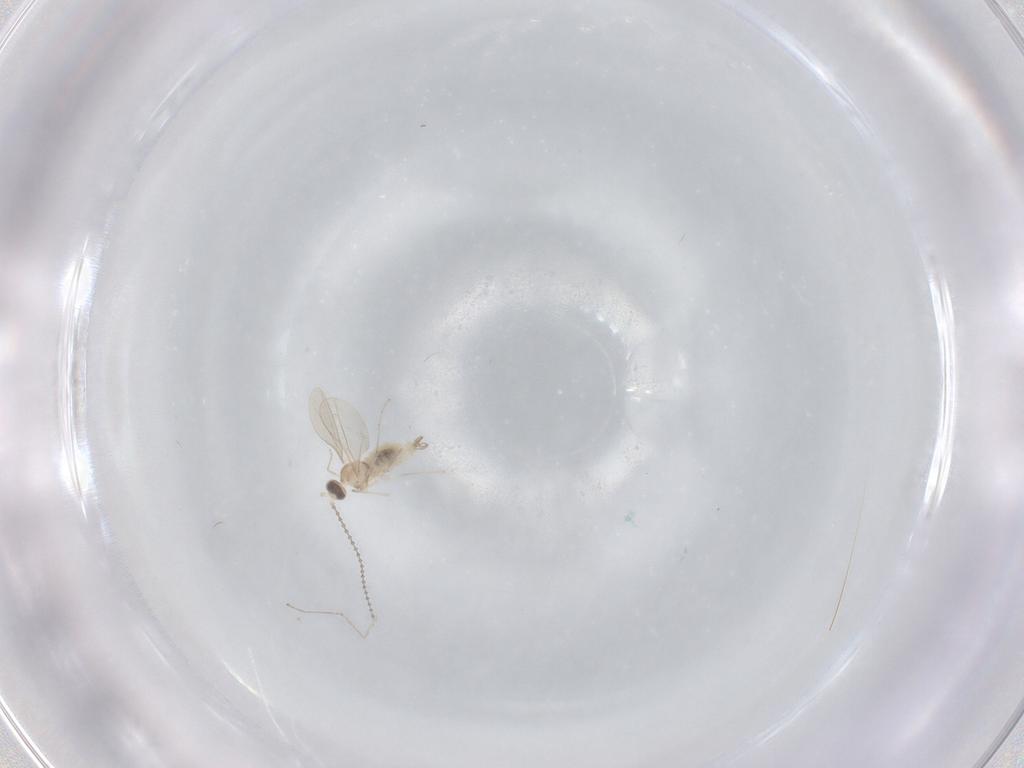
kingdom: Animalia
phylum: Arthropoda
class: Insecta
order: Diptera
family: Cecidomyiidae
